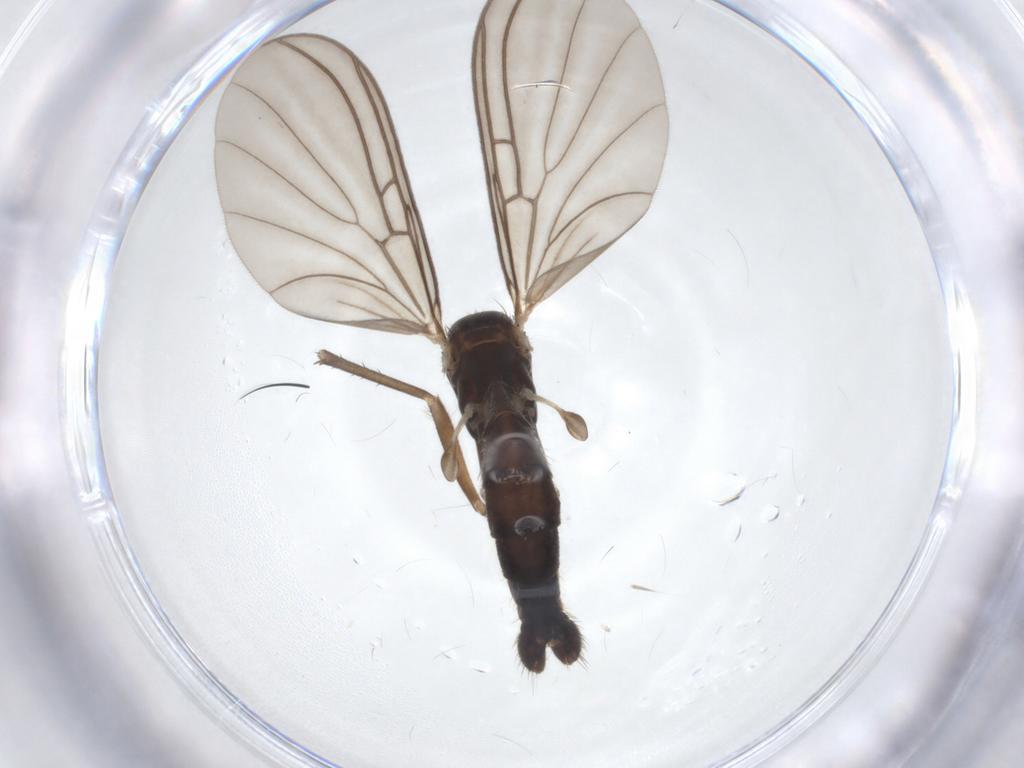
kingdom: Animalia
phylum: Arthropoda
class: Insecta
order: Diptera
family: Mycetophilidae
